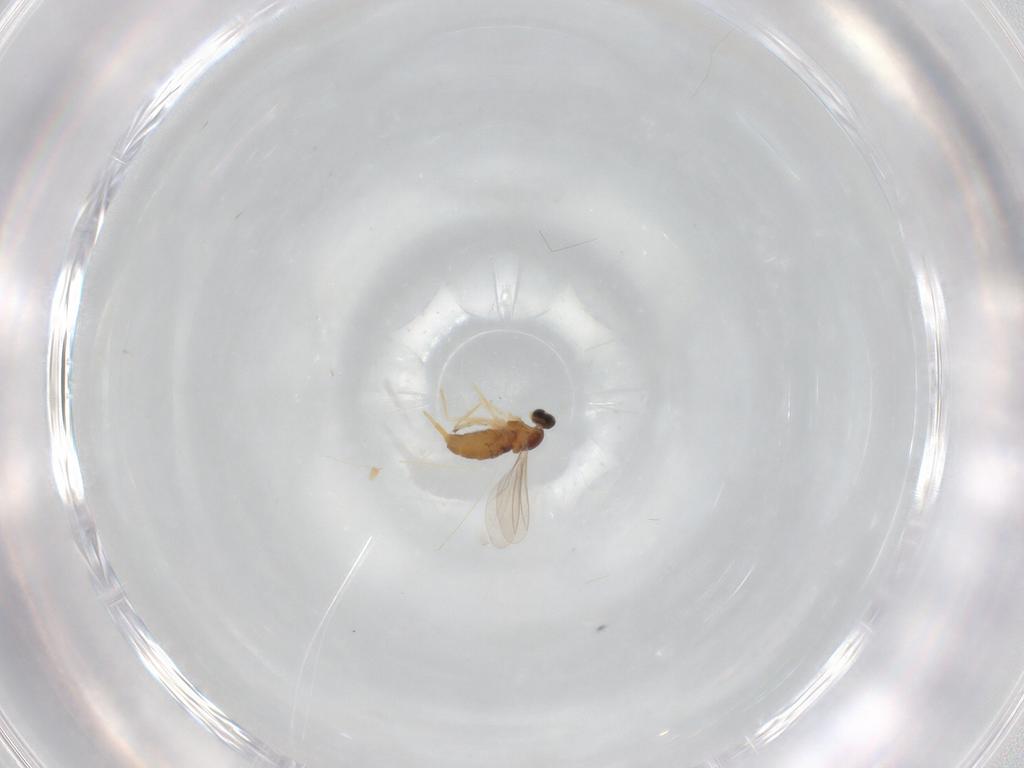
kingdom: Animalia
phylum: Arthropoda
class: Insecta
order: Diptera
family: Cecidomyiidae
